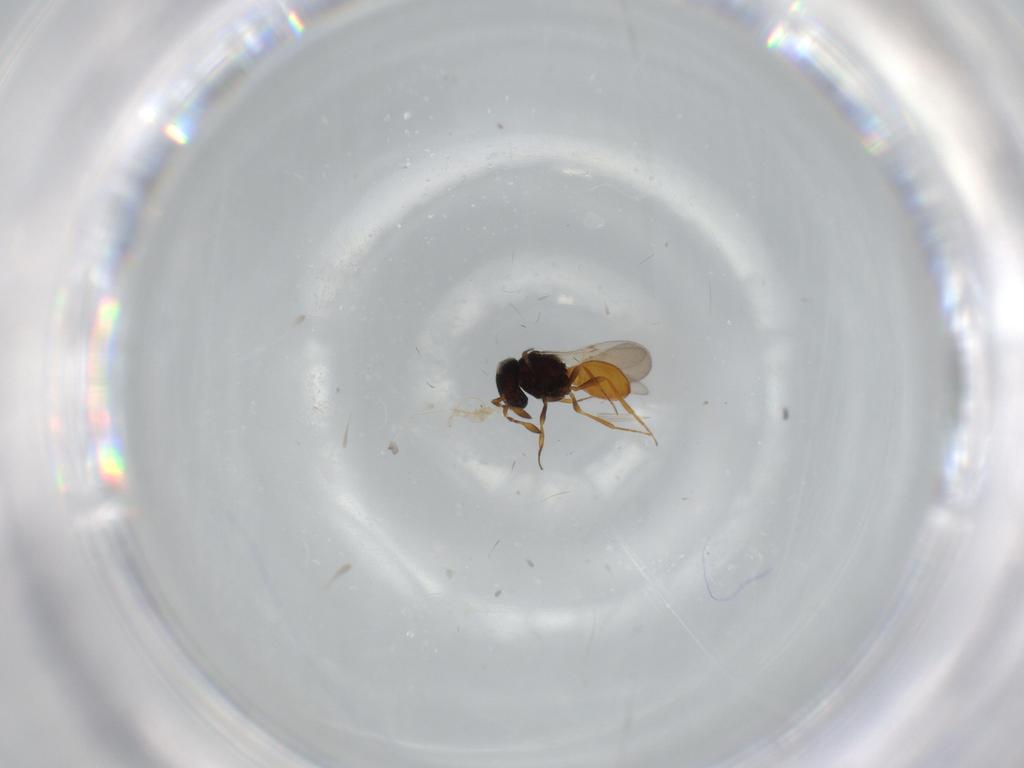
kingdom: Animalia
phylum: Arthropoda
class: Insecta
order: Hymenoptera
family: Scelionidae
